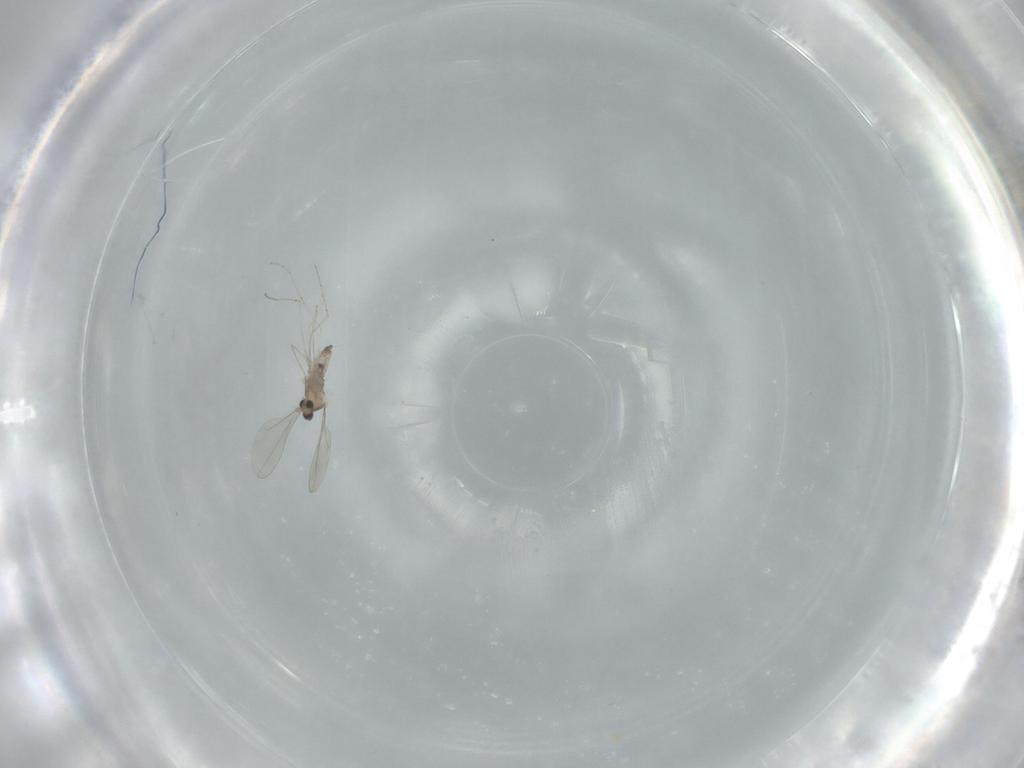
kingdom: Animalia
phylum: Arthropoda
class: Insecta
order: Diptera
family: Cecidomyiidae
